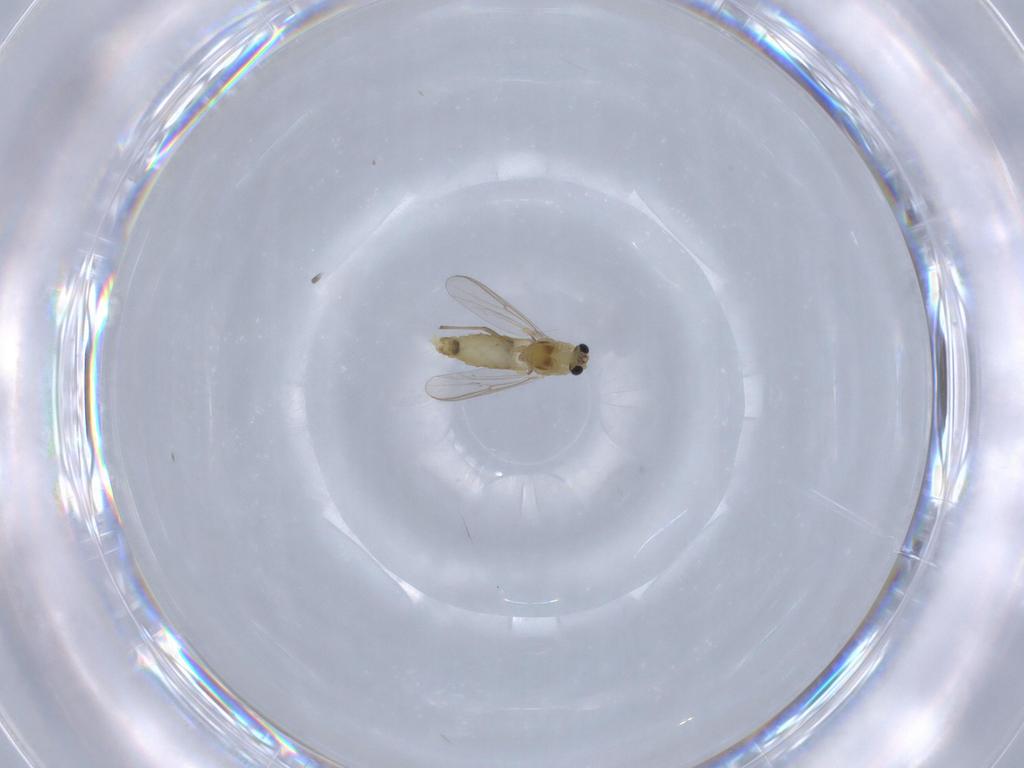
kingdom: Animalia
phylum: Arthropoda
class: Insecta
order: Diptera
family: Chironomidae
